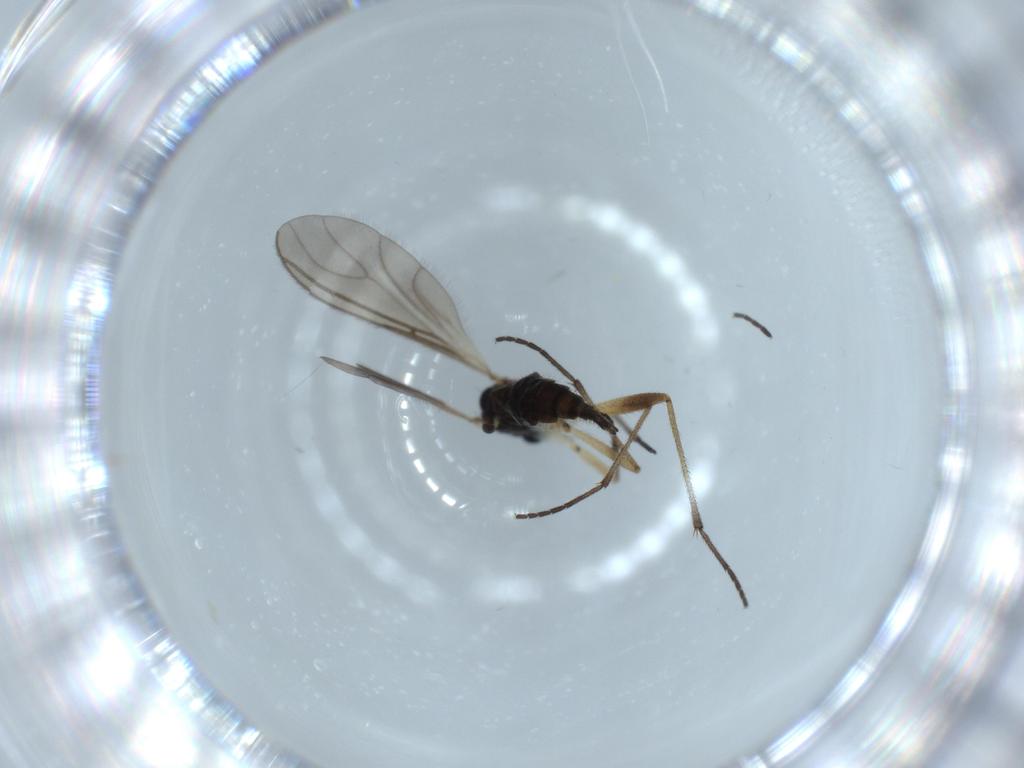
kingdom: Animalia
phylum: Arthropoda
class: Insecta
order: Diptera
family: Sciaridae
